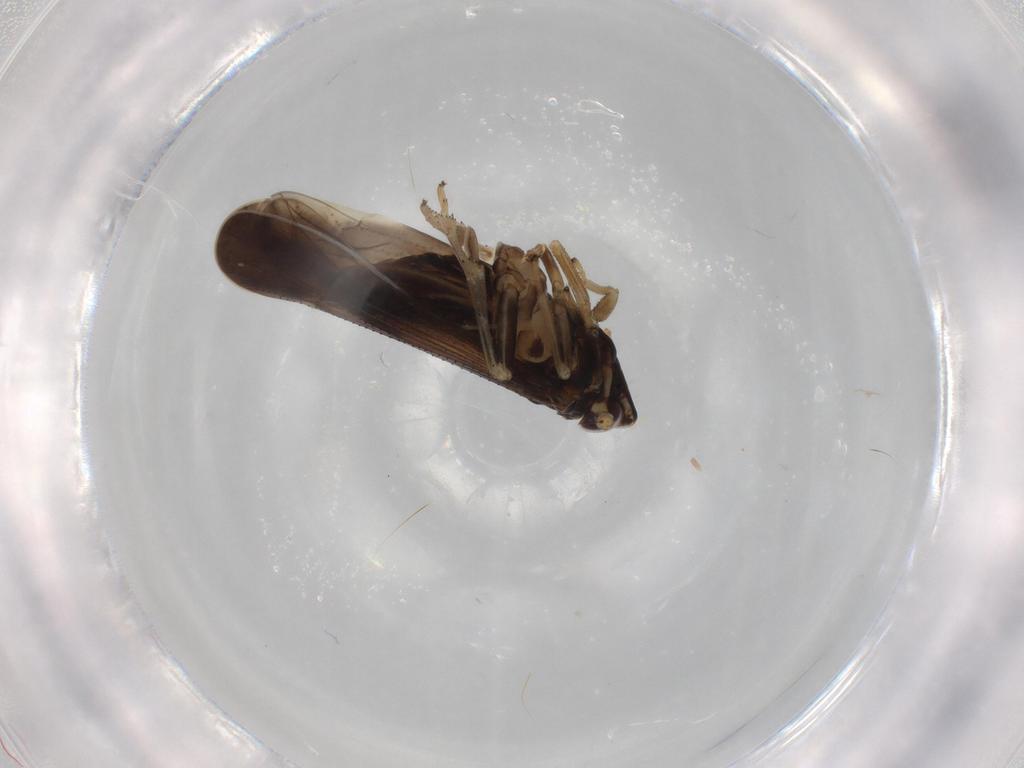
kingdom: Animalia
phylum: Arthropoda
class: Insecta
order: Hemiptera
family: Delphacidae
